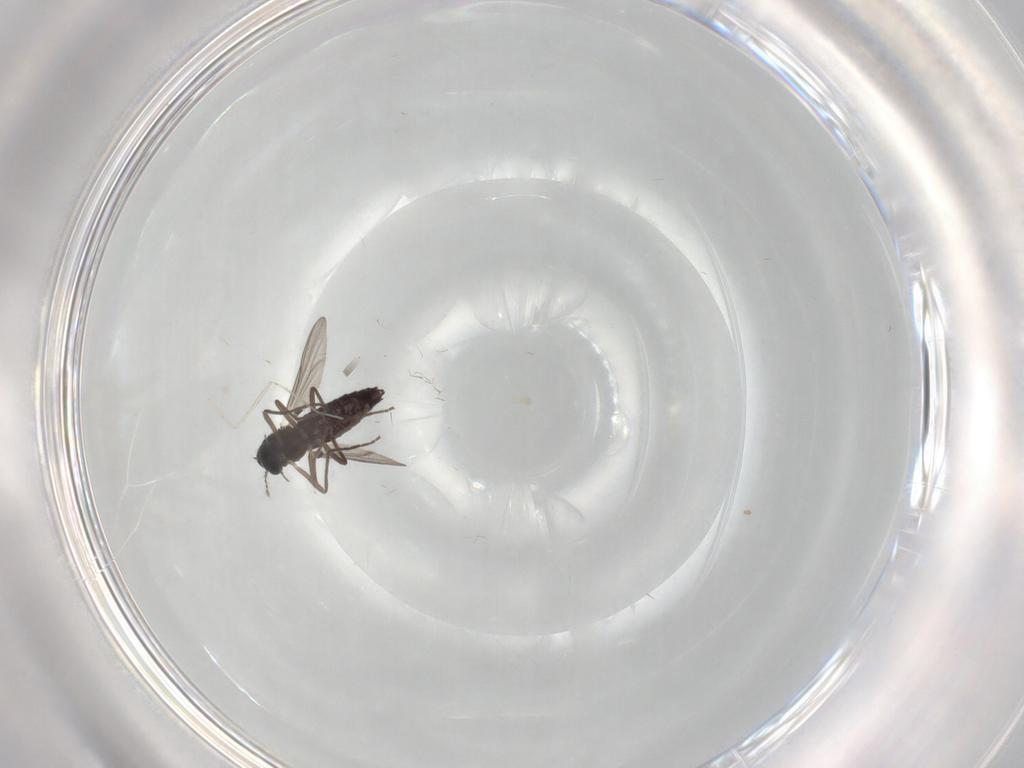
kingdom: Animalia
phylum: Arthropoda
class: Insecta
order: Diptera
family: Chironomidae
